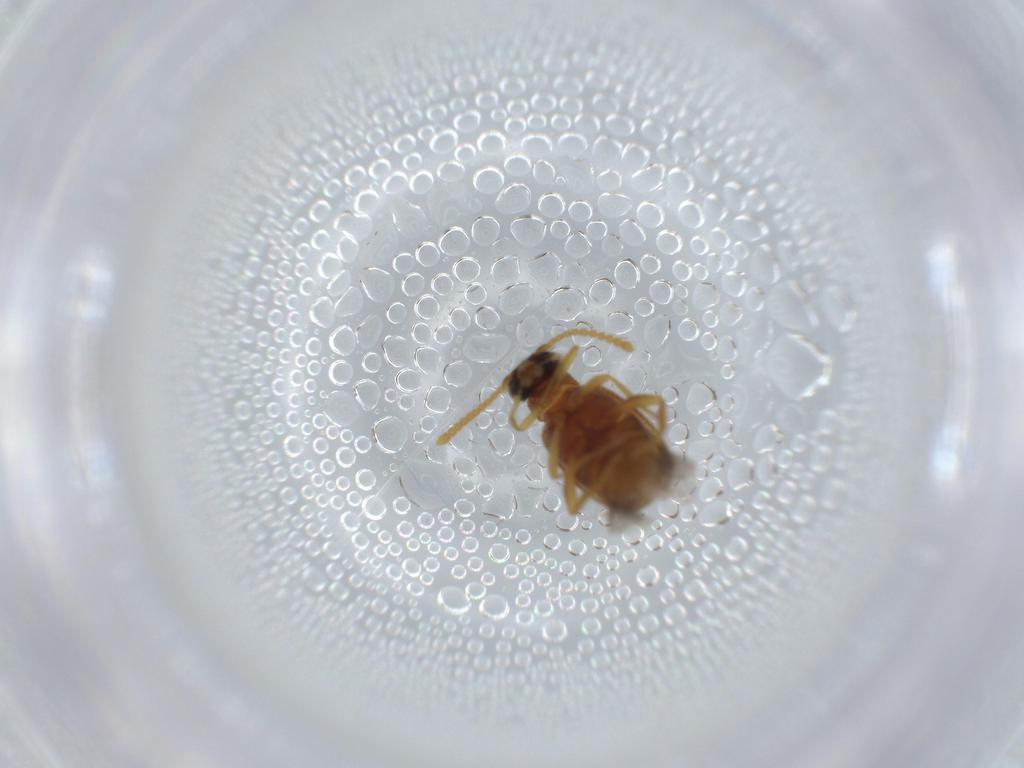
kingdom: Animalia
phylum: Arthropoda
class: Insecta
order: Coleoptera
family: Aderidae
